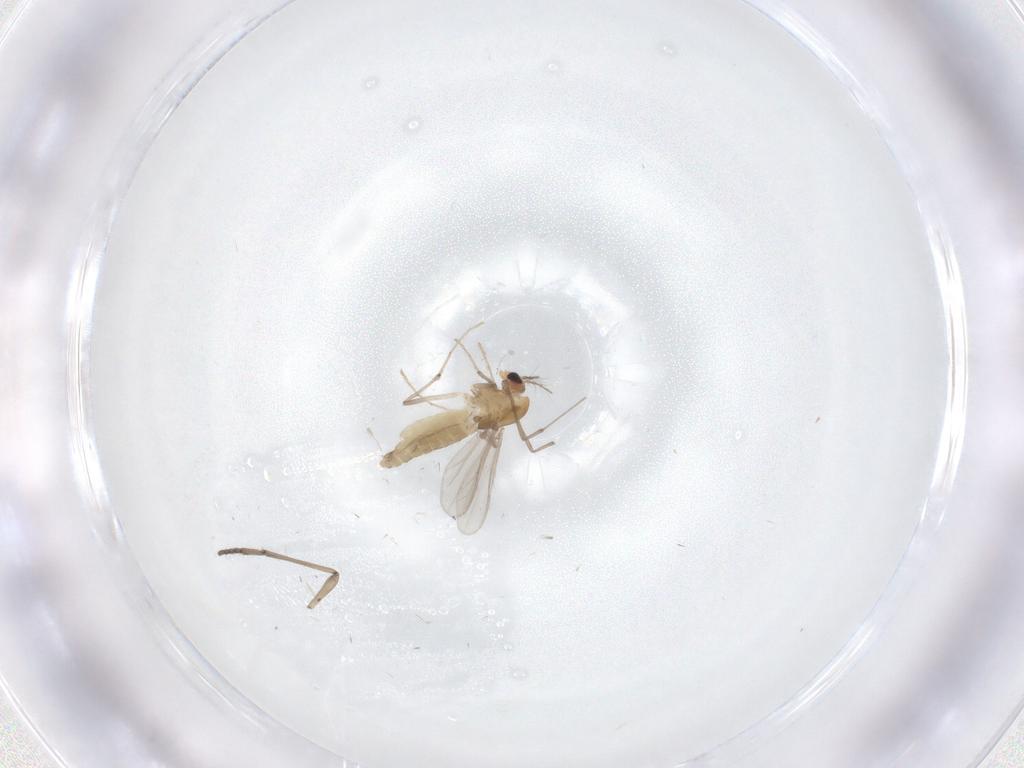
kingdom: Animalia
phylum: Arthropoda
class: Insecta
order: Diptera
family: Chironomidae
